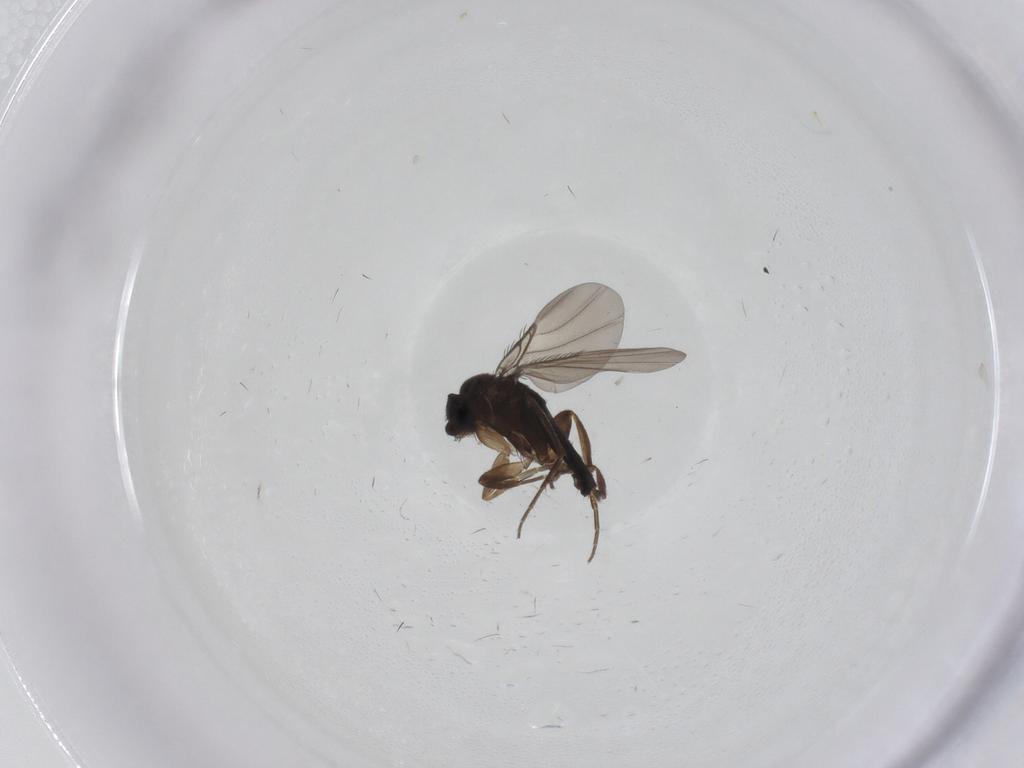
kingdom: Animalia
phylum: Arthropoda
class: Insecta
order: Diptera
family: Phoridae
